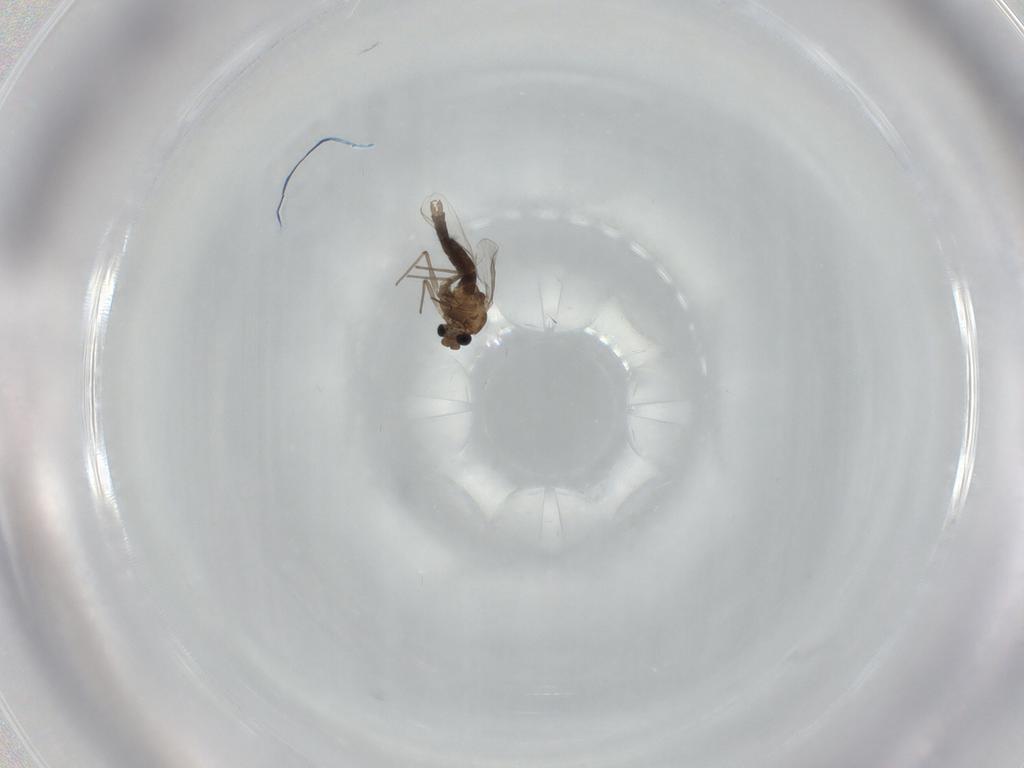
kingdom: Animalia
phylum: Arthropoda
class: Insecta
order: Diptera
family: Chironomidae
